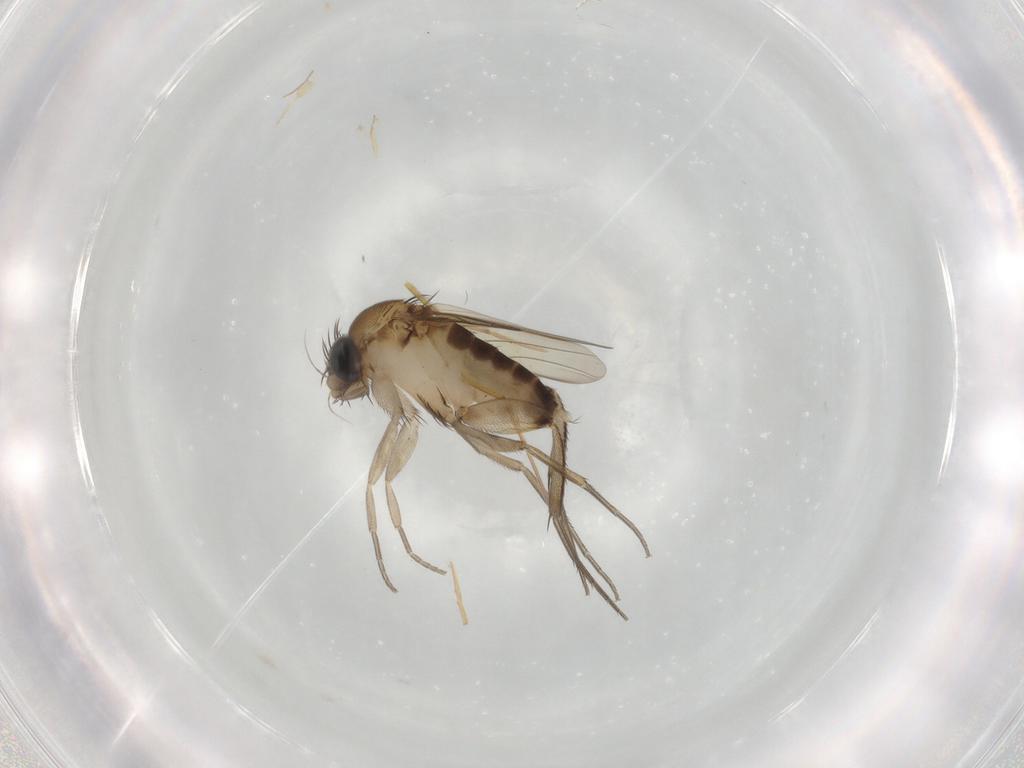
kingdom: Animalia
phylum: Arthropoda
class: Insecta
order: Diptera
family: Phoridae
